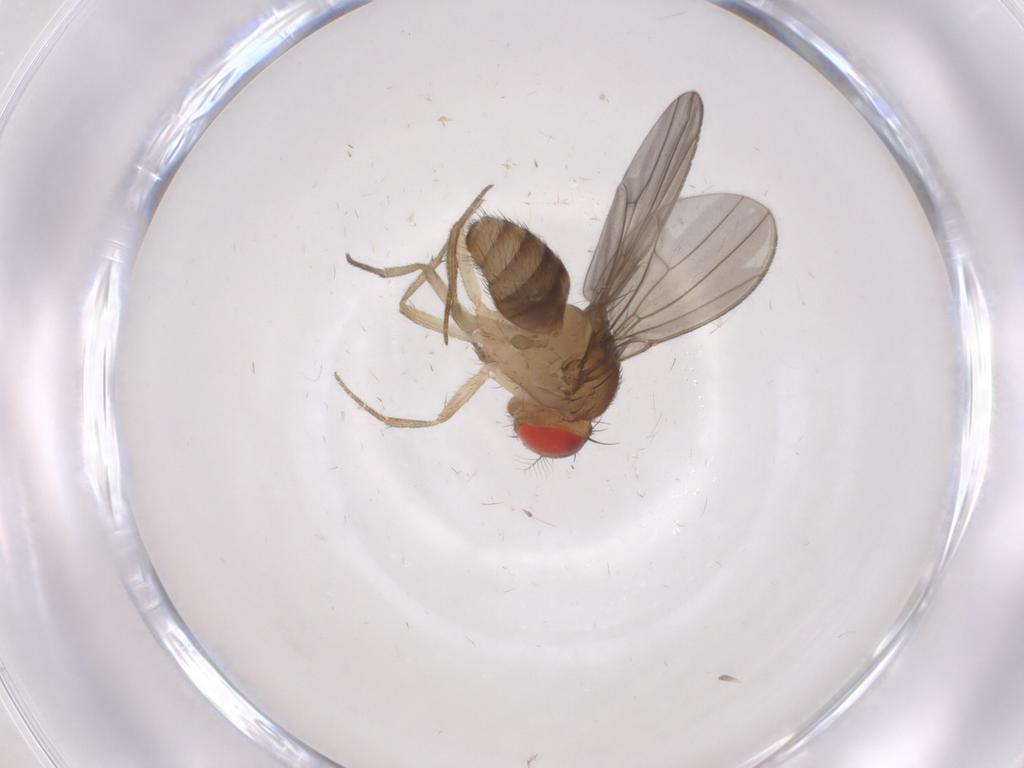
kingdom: Animalia
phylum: Arthropoda
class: Insecta
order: Diptera
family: Drosophilidae
